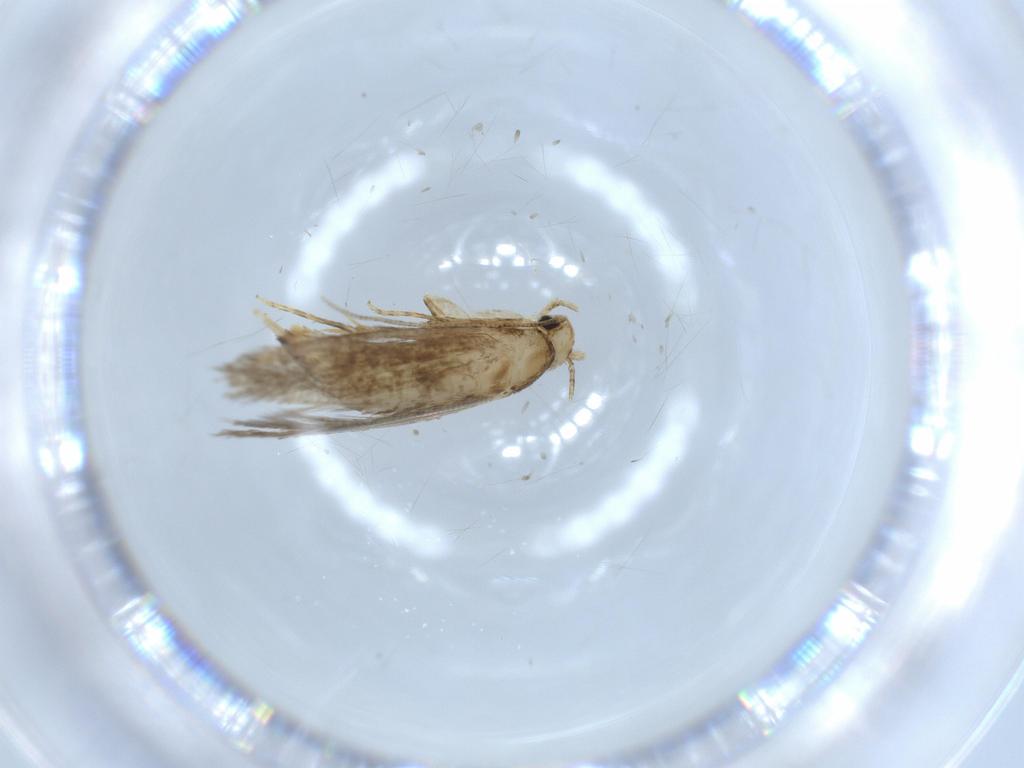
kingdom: Animalia
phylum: Arthropoda
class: Insecta
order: Lepidoptera
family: Tineidae
